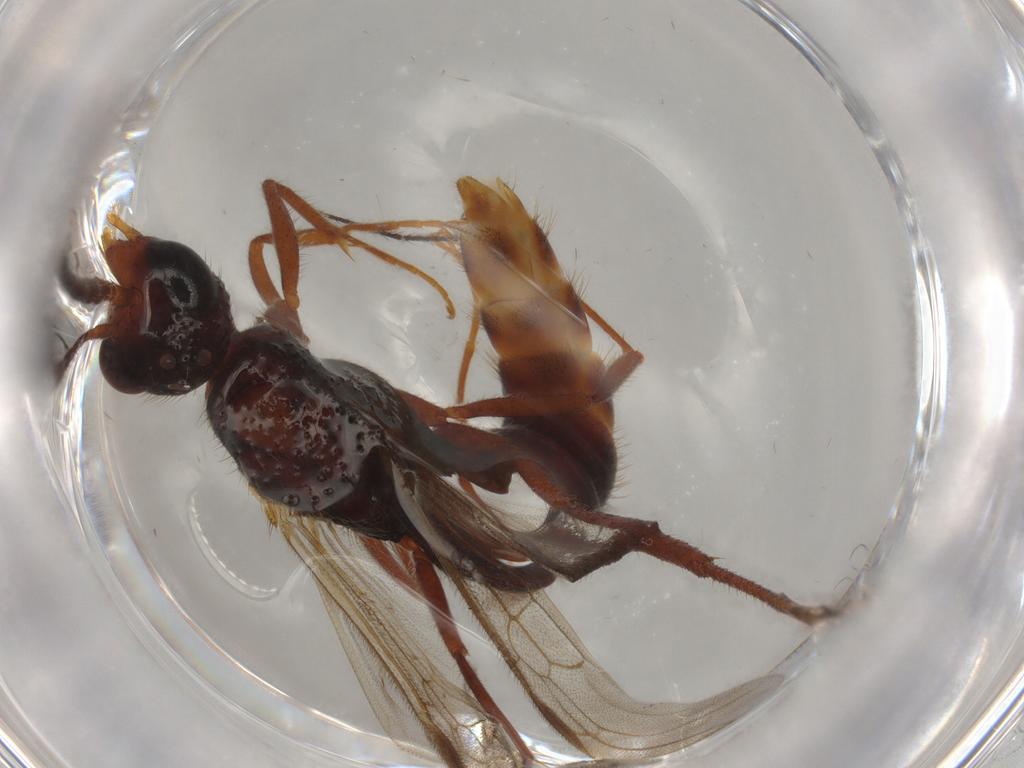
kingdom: Animalia
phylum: Arthropoda
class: Insecta
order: Hymenoptera
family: Formicidae
